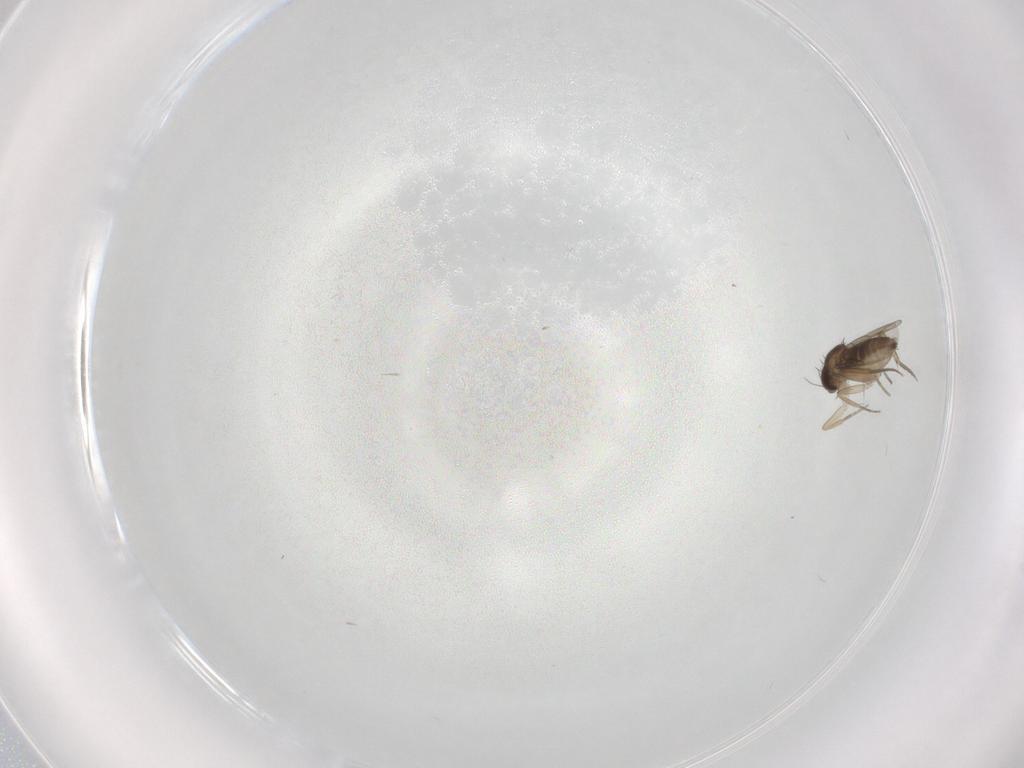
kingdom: Animalia
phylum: Arthropoda
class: Insecta
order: Diptera
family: Phoridae
